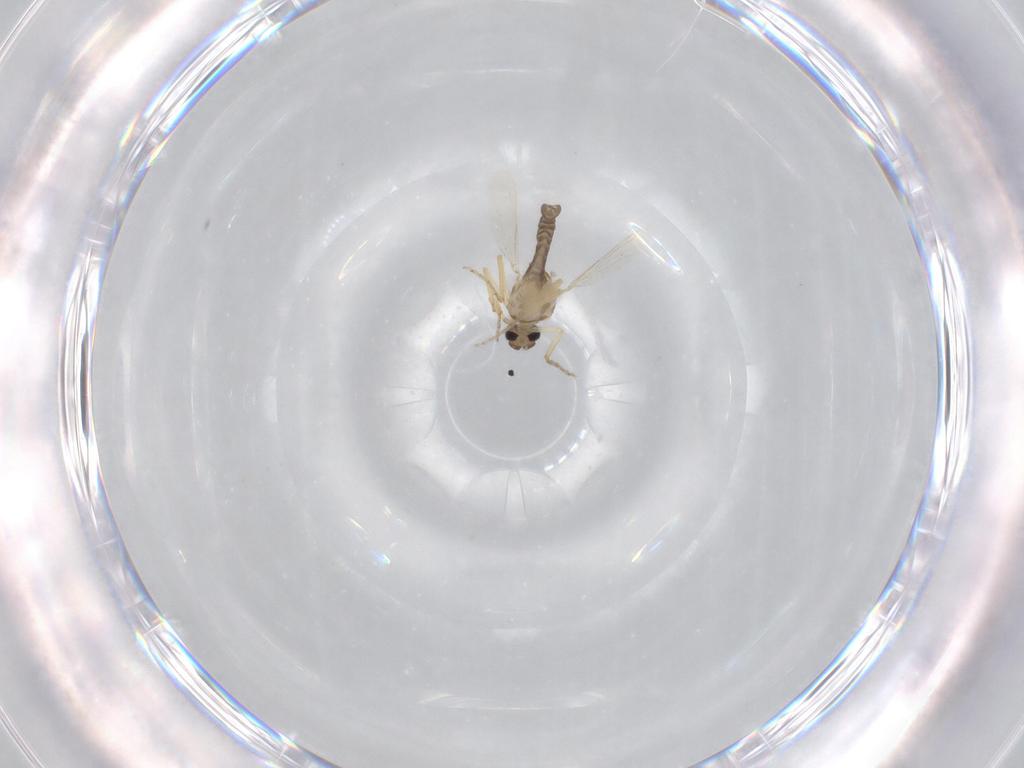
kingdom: Animalia
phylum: Arthropoda
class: Insecta
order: Diptera
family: Ceratopogonidae
